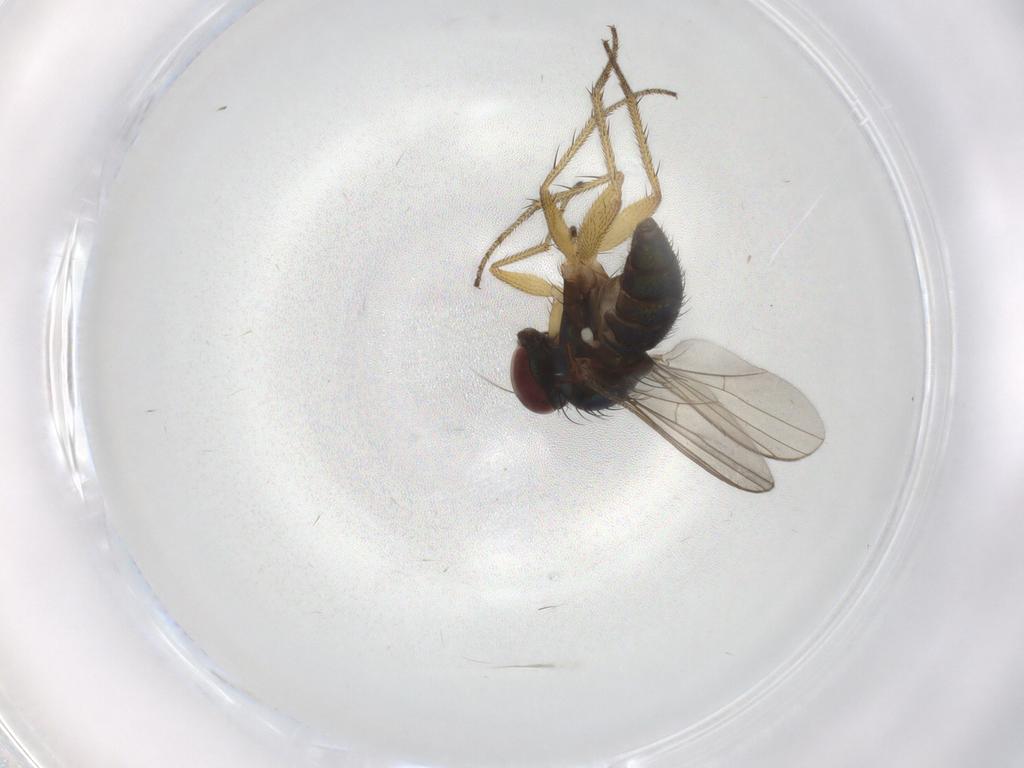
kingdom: Animalia
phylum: Arthropoda
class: Insecta
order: Diptera
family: Dolichopodidae
